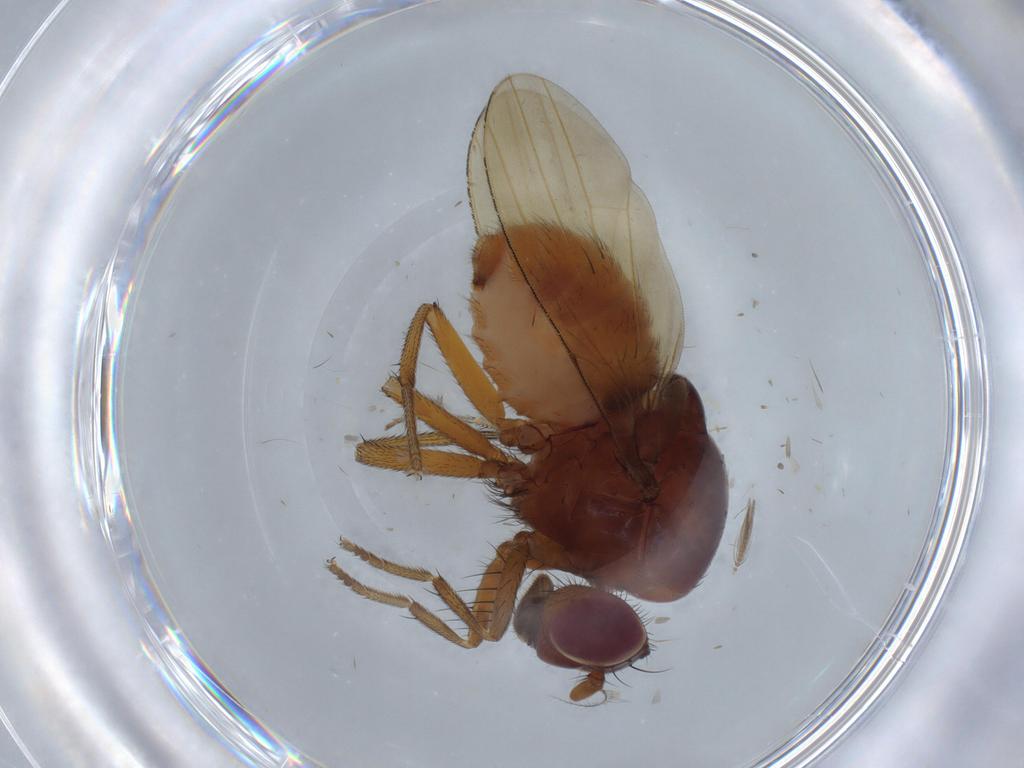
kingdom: Animalia
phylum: Arthropoda
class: Insecta
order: Diptera
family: Lauxaniidae
